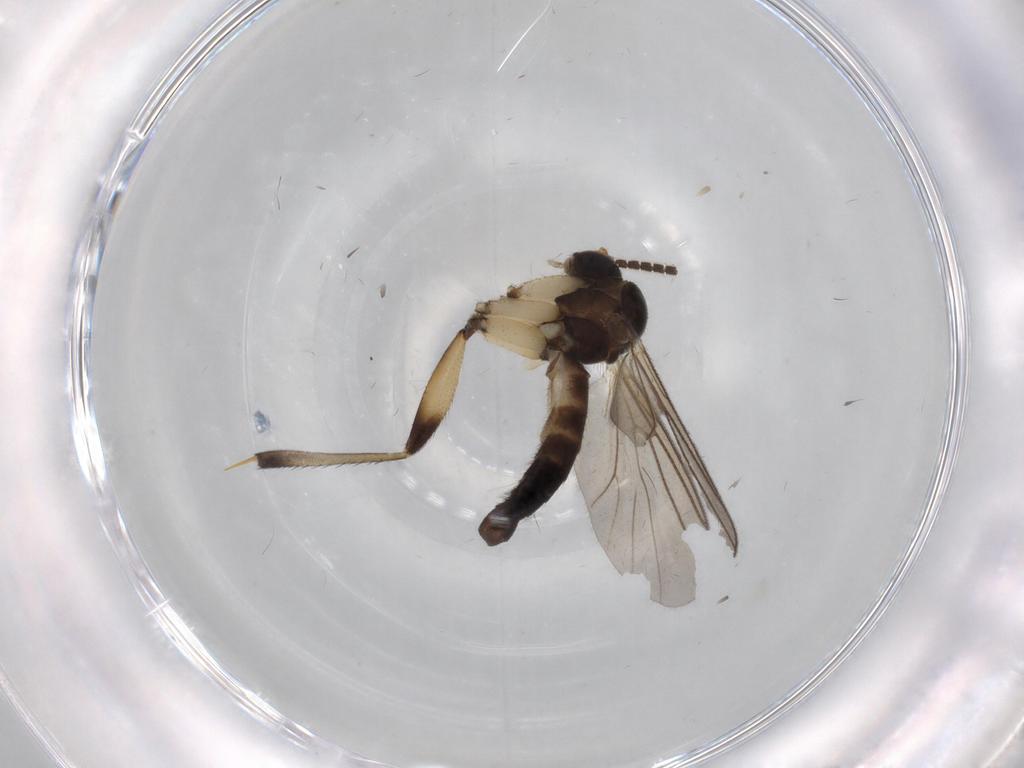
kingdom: Animalia
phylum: Arthropoda
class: Insecta
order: Diptera
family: Mycetophilidae
